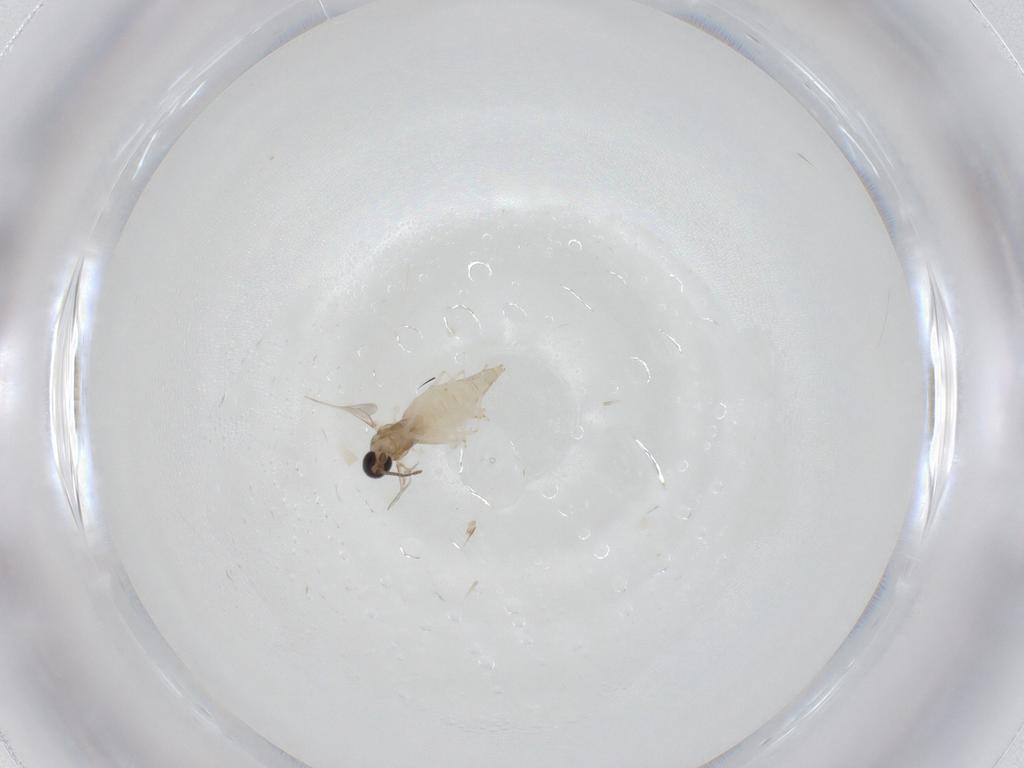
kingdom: Animalia
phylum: Arthropoda
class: Insecta
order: Diptera
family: Cecidomyiidae
